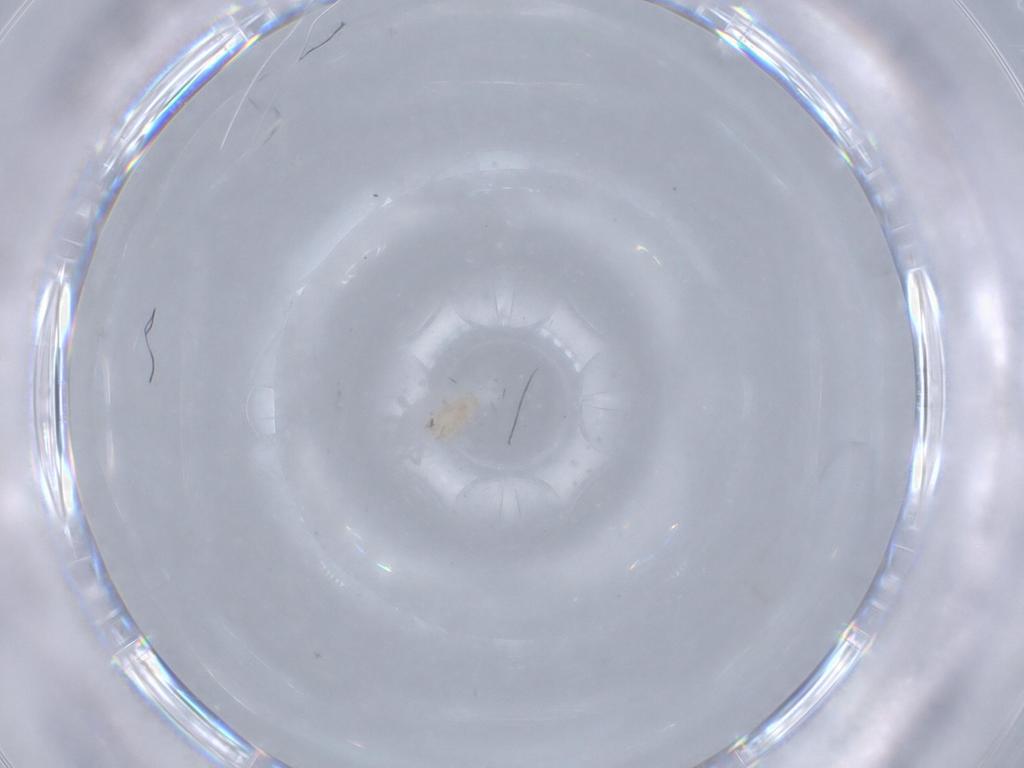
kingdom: Animalia
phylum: Arthropoda
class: Arachnida
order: Mesostigmata
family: Digamasellidae
